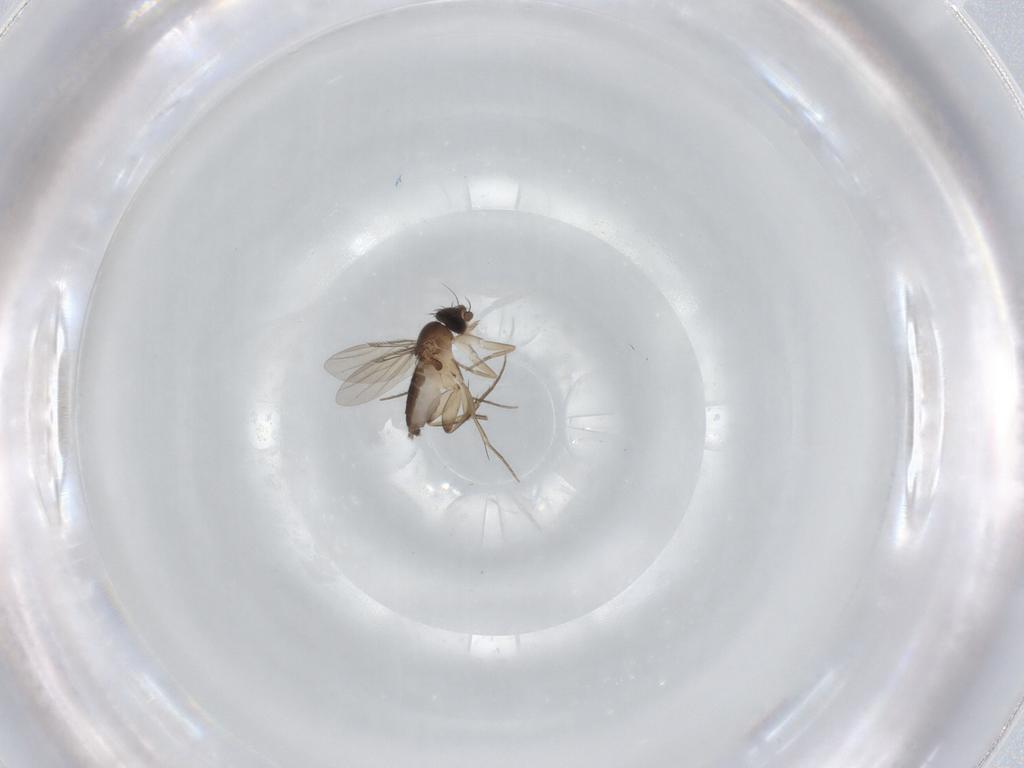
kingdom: Animalia
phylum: Arthropoda
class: Insecta
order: Diptera
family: Phoridae
